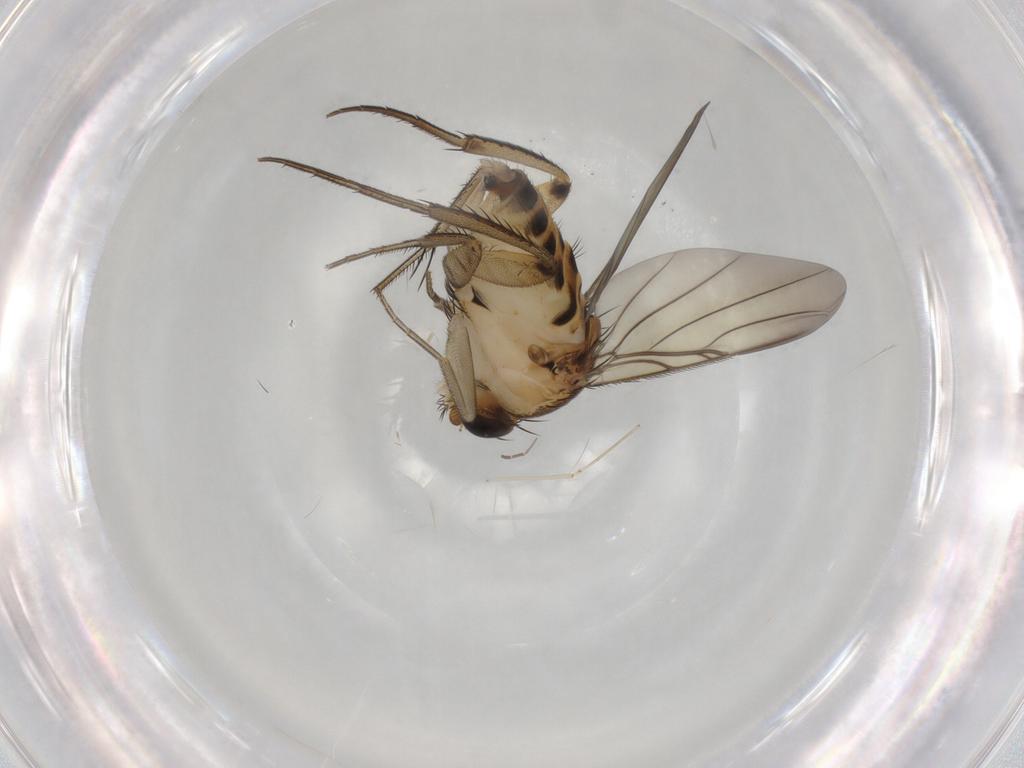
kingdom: Animalia
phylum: Arthropoda
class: Insecta
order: Diptera
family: Phoridae
